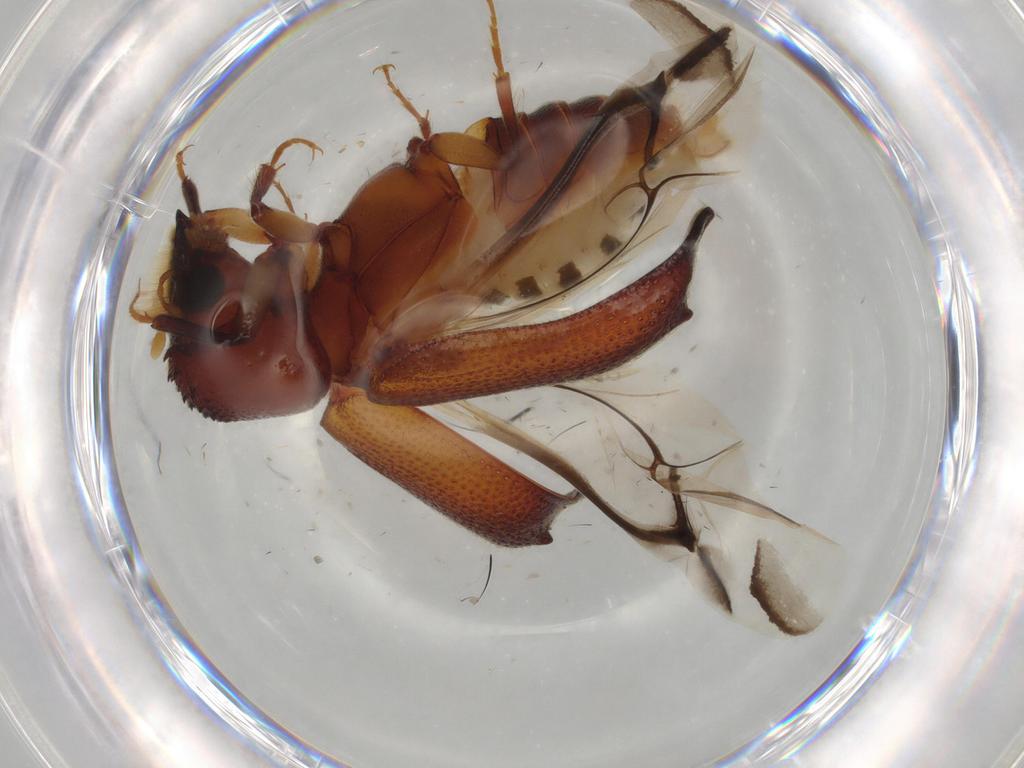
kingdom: Animalia
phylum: Arthropoda
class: Insecta
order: Coleoptera
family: Bostrichidae
